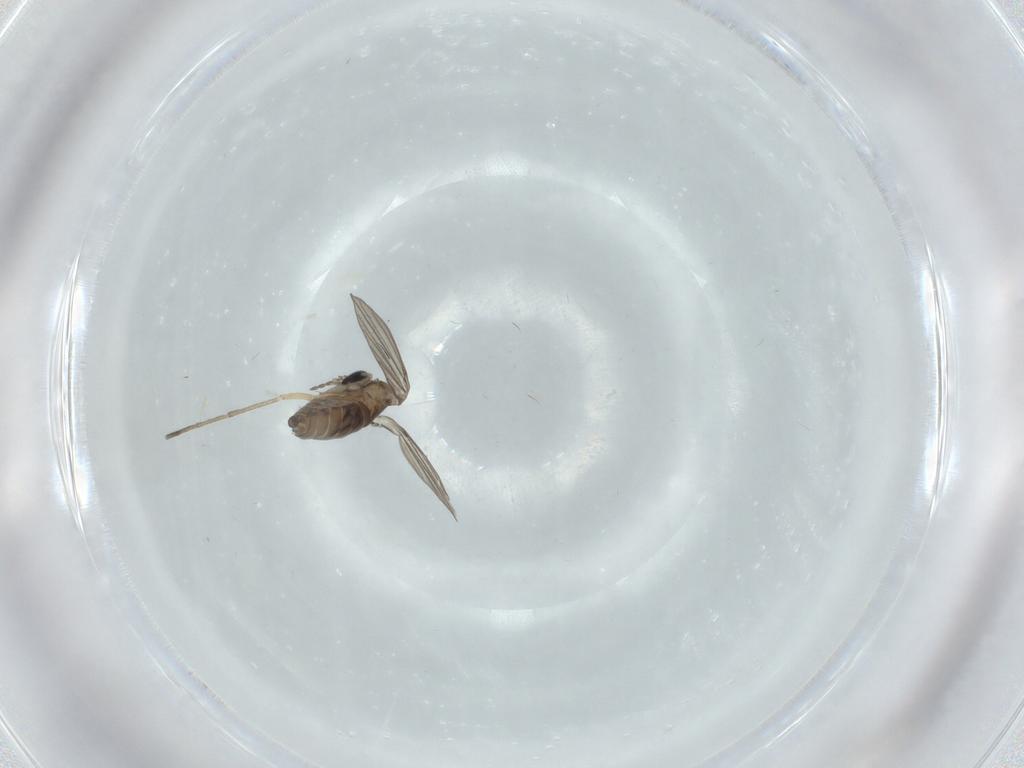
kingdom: Animalia
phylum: Arthropoda
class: Insecta
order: Diptera
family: Psychodidae
